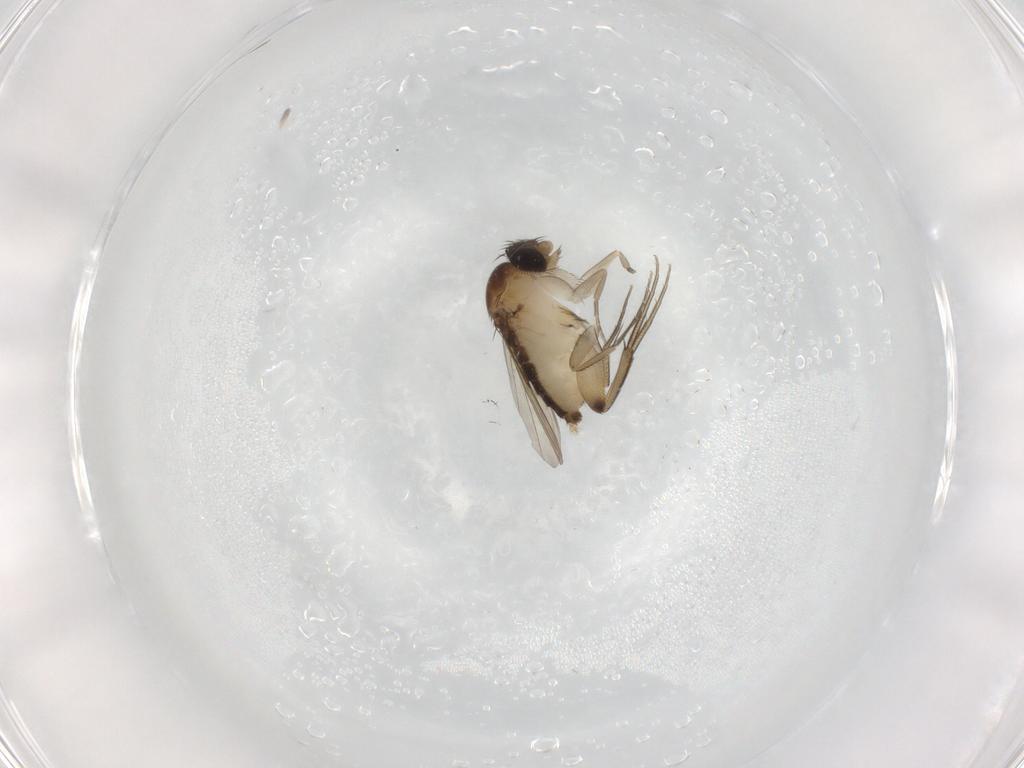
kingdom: Animalia
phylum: Arthropoda
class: Insecta
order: Diptera
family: Phoridae
